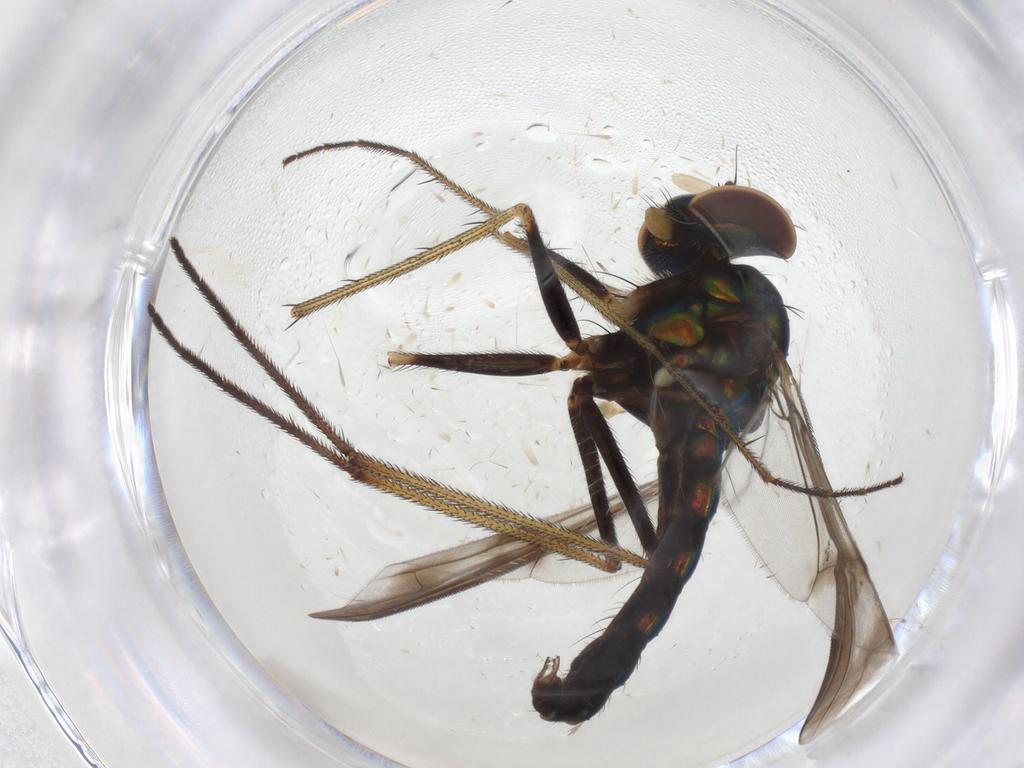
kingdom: Animalia
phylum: Arthropoda
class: Insecta
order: Diptera
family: Dolichopodidae
